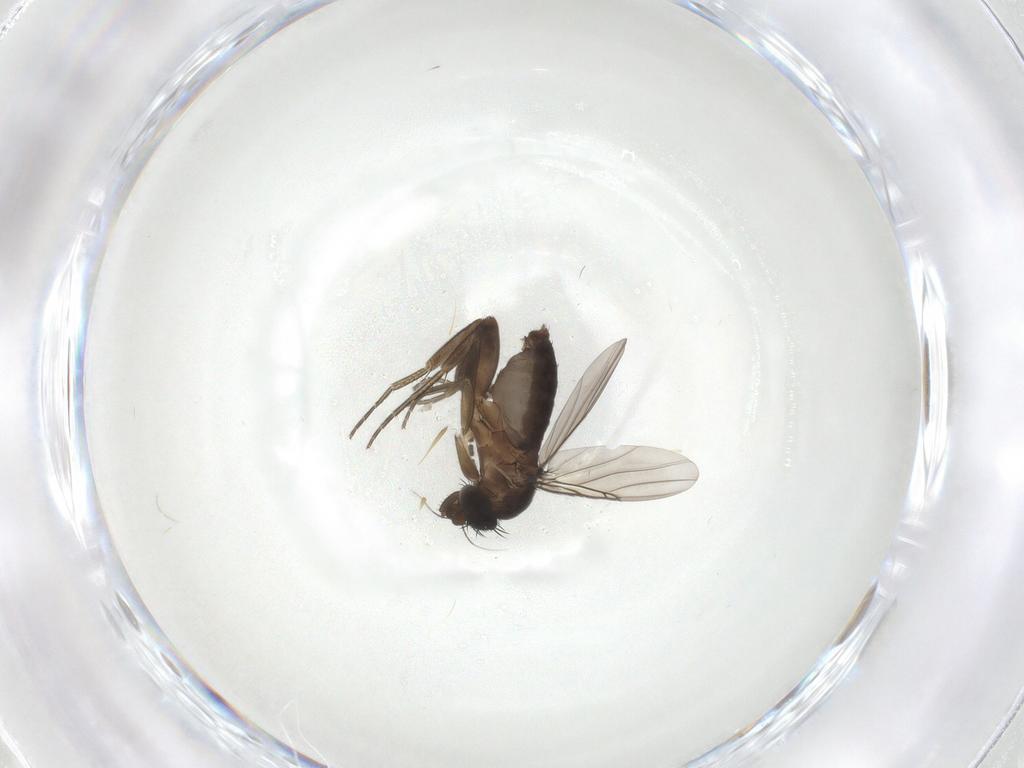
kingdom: Animalia
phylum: Arthropoda
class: Insecta
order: Diptera
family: Phoridae
